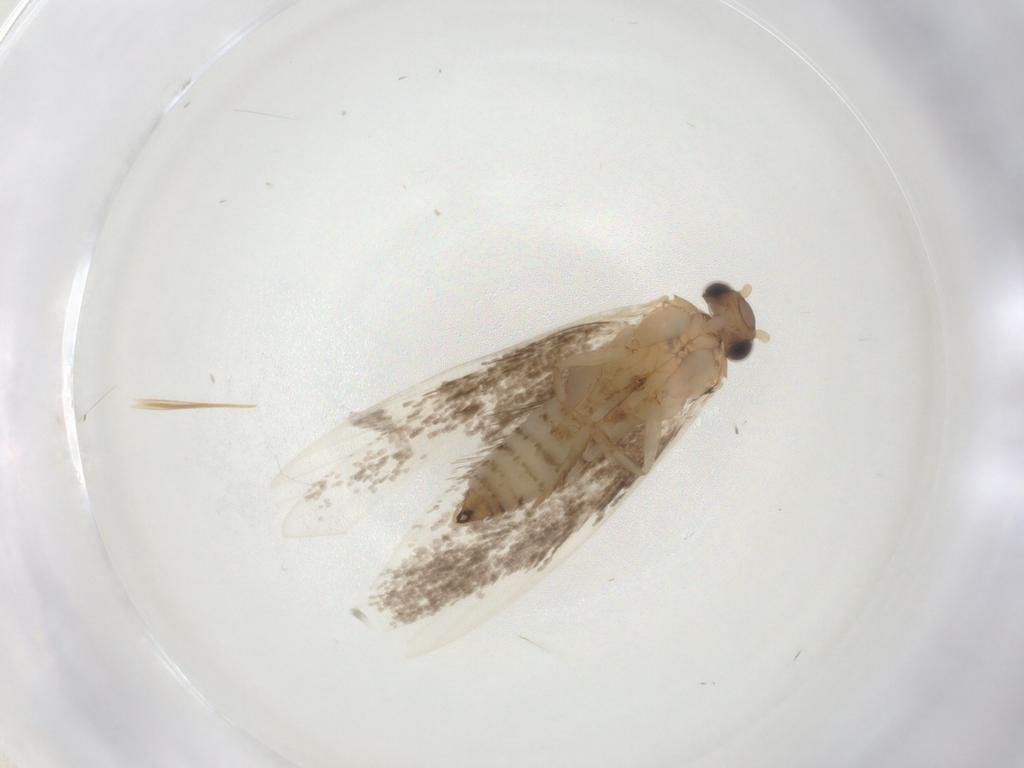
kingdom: Animalia
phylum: Arthropoda
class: Insecta
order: Lepidoptera
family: Tineidae
